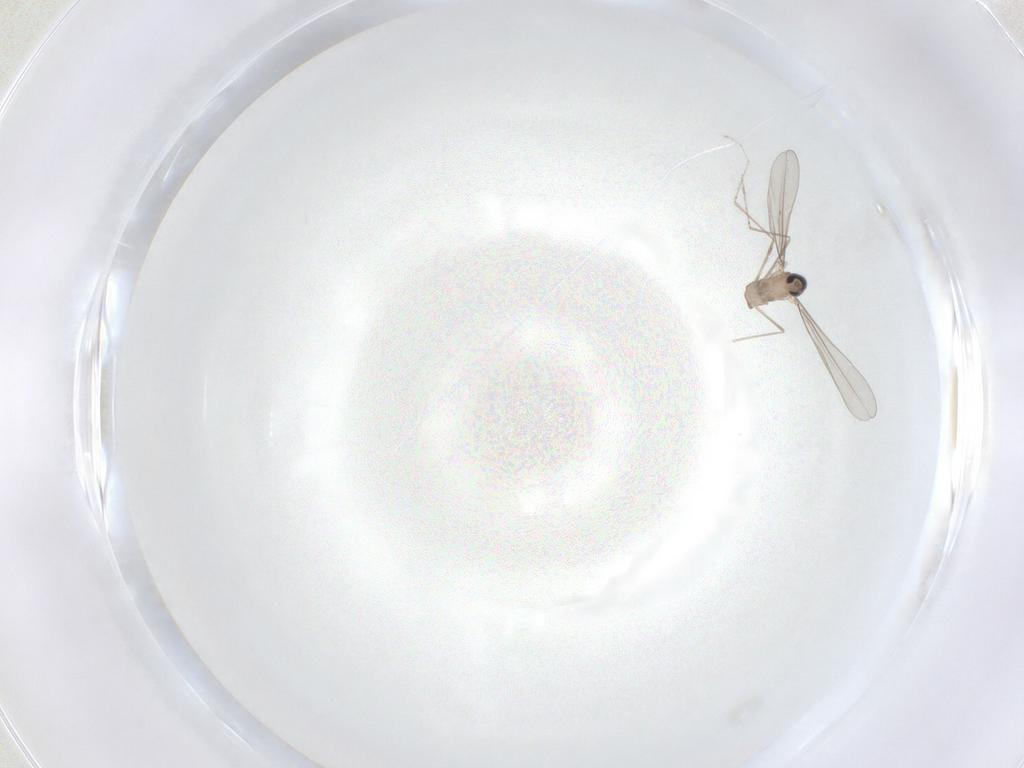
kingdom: Animalia
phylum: Arthropoda
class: Insecta
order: Diptera
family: Cecidomyiidae
